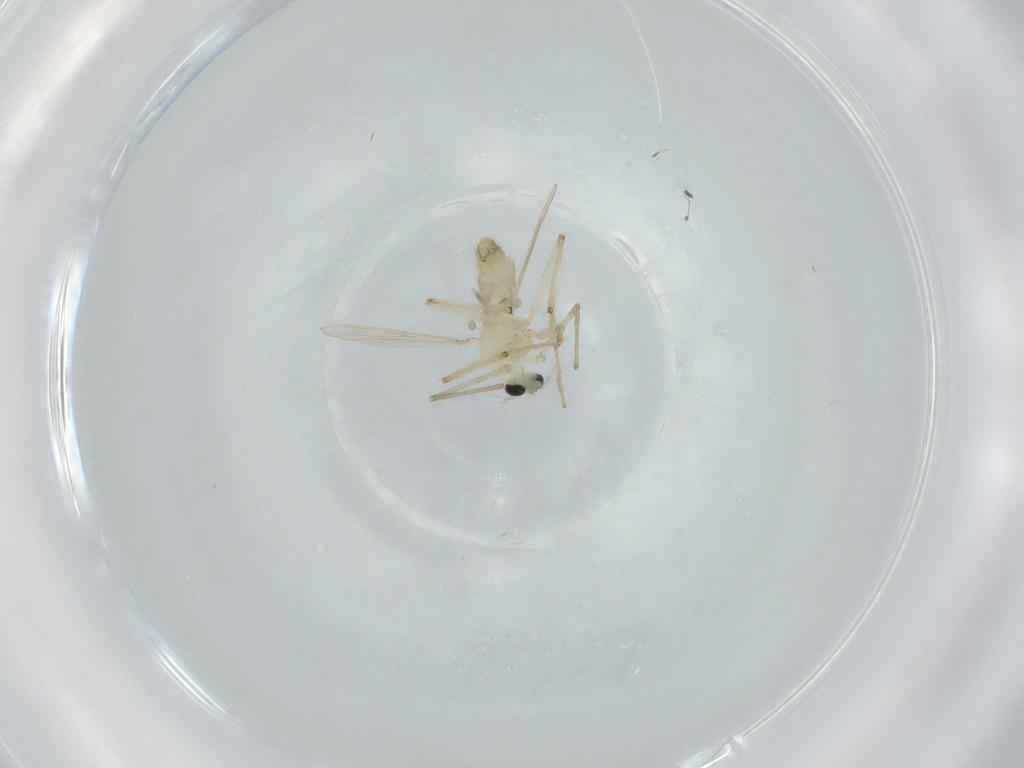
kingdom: Animalia
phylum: Arthropoda
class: Insecta
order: Diptera
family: Chironomidae
